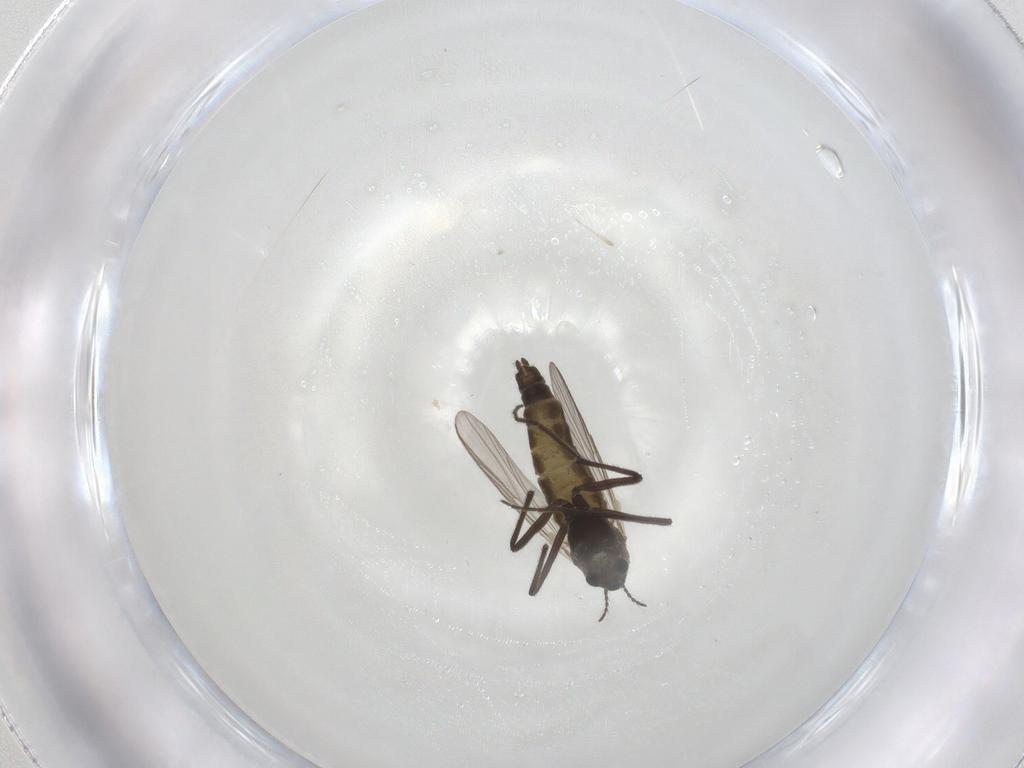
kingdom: Animalia
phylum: Arthropoda
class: Insecta
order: Diptera
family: Chironomidae
